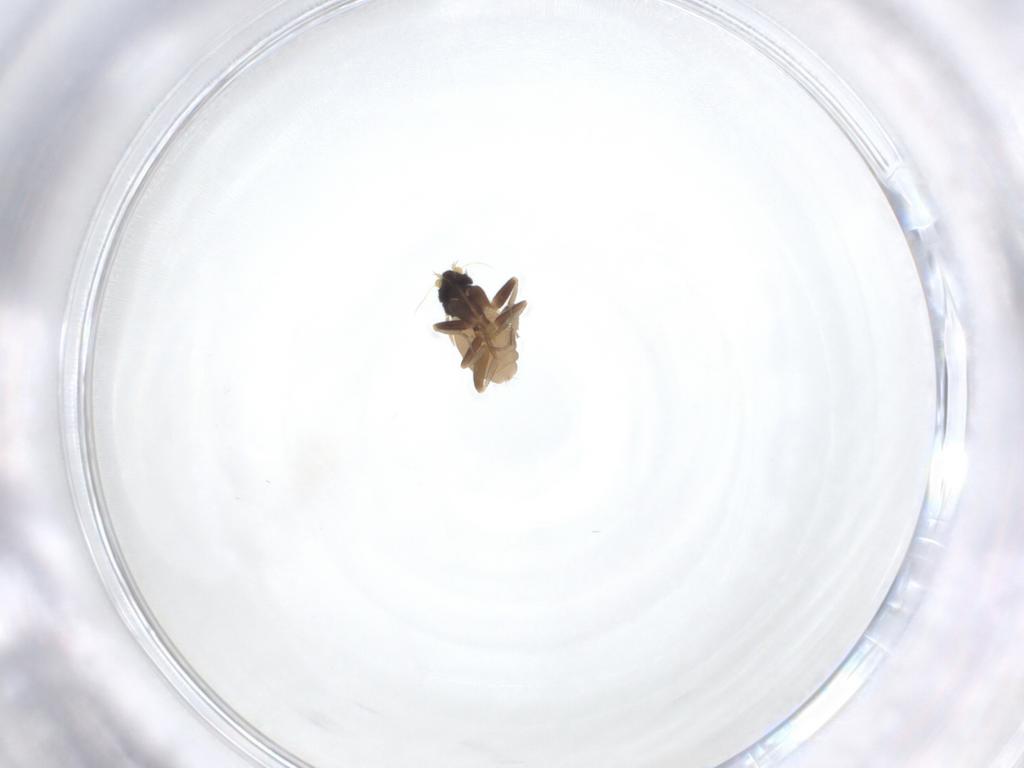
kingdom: Animalia
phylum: Arthropoda
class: Insecta
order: Diptera
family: Phoridae
